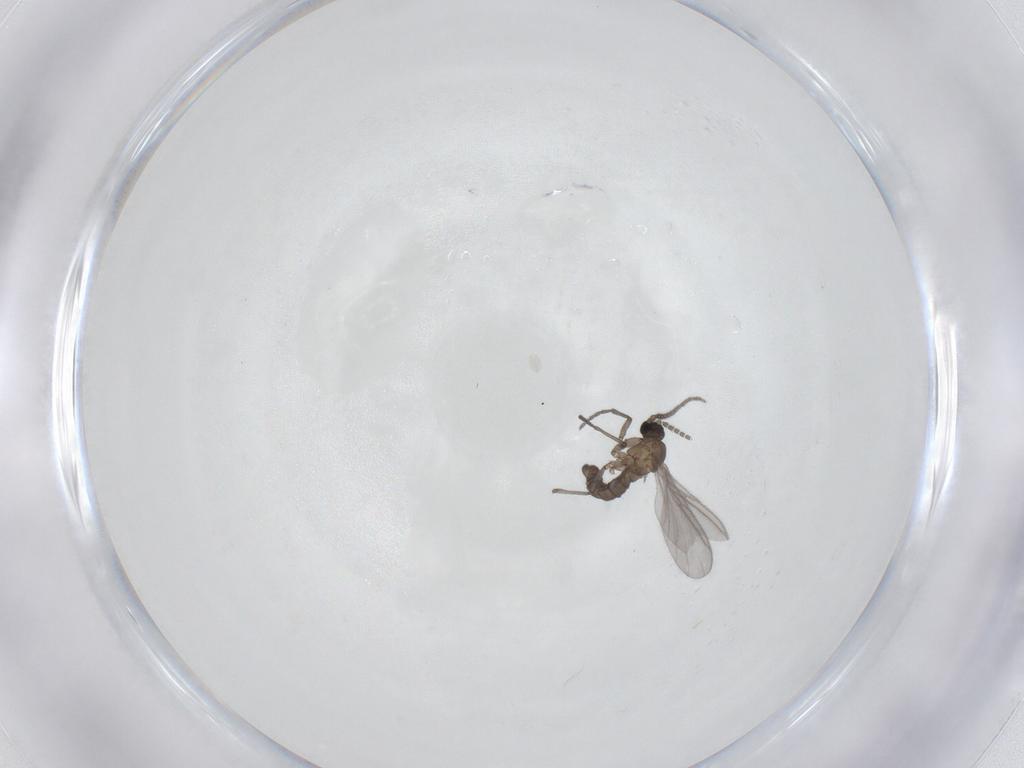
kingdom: Animalia
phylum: Arthropoda
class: Insecta
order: Diptera
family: Sciaridae
